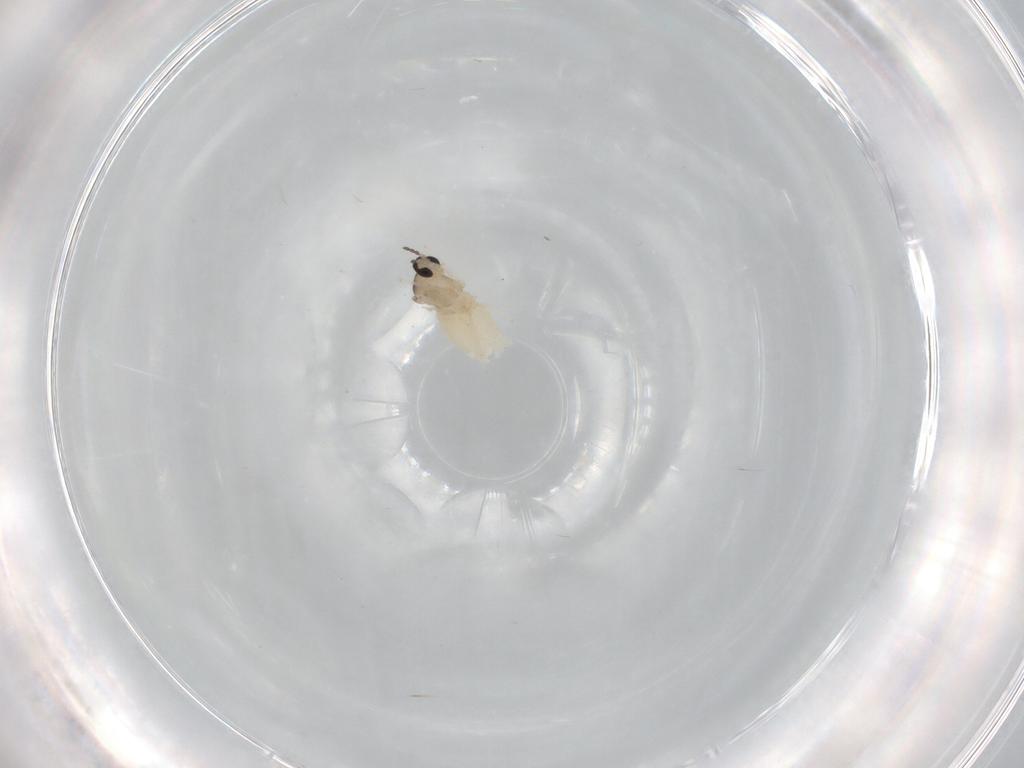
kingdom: Animalia
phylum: Arthropoda
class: Insecta
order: Diptera
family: Cecidomyiidae
